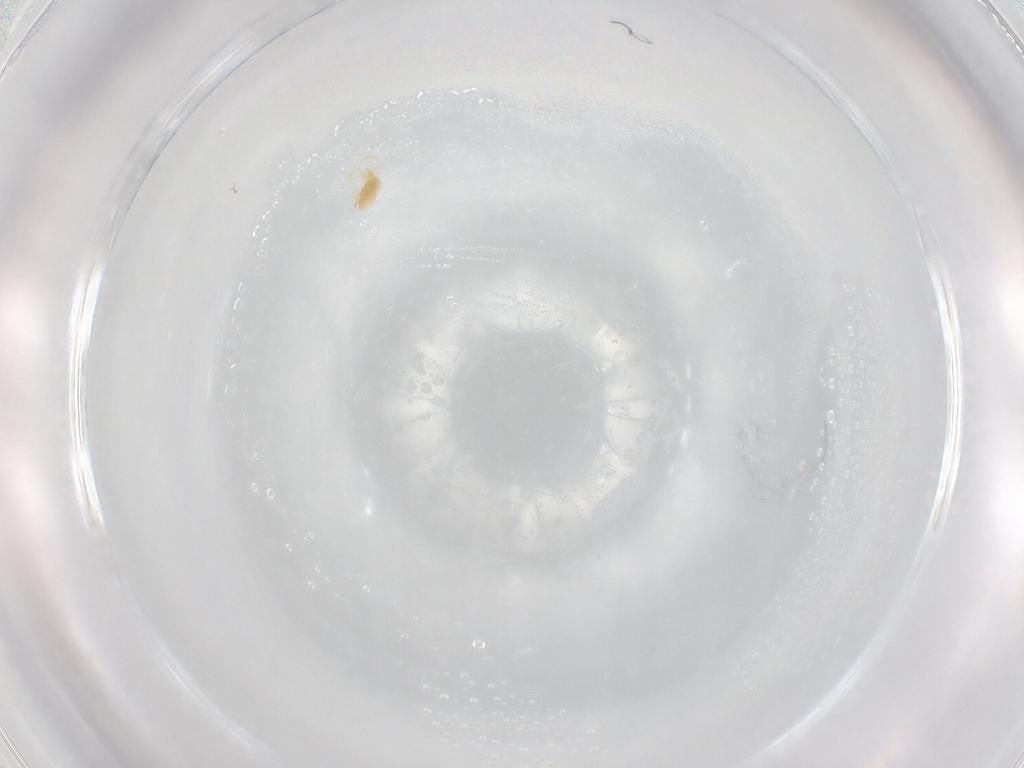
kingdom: Animalia
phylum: Arthropoda
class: Arachnida
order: Trombidiformes
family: Eupodidae
